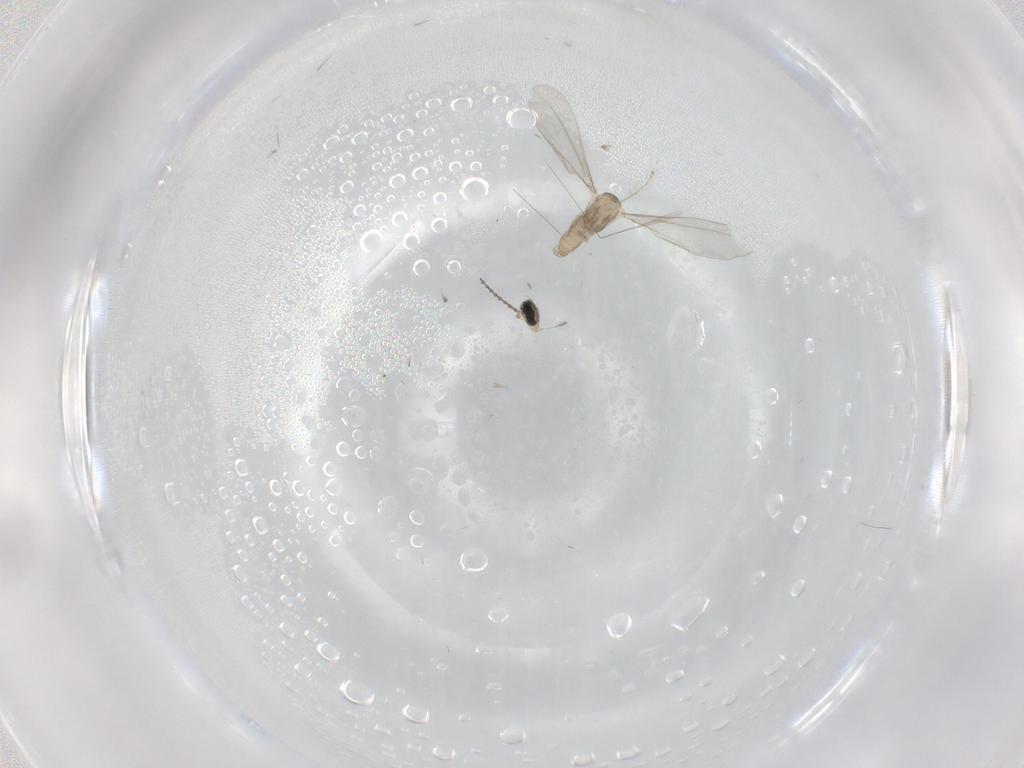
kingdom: Animalia
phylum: Arthropoda
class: Insecta
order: Diptera
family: Cecidomyiidae
